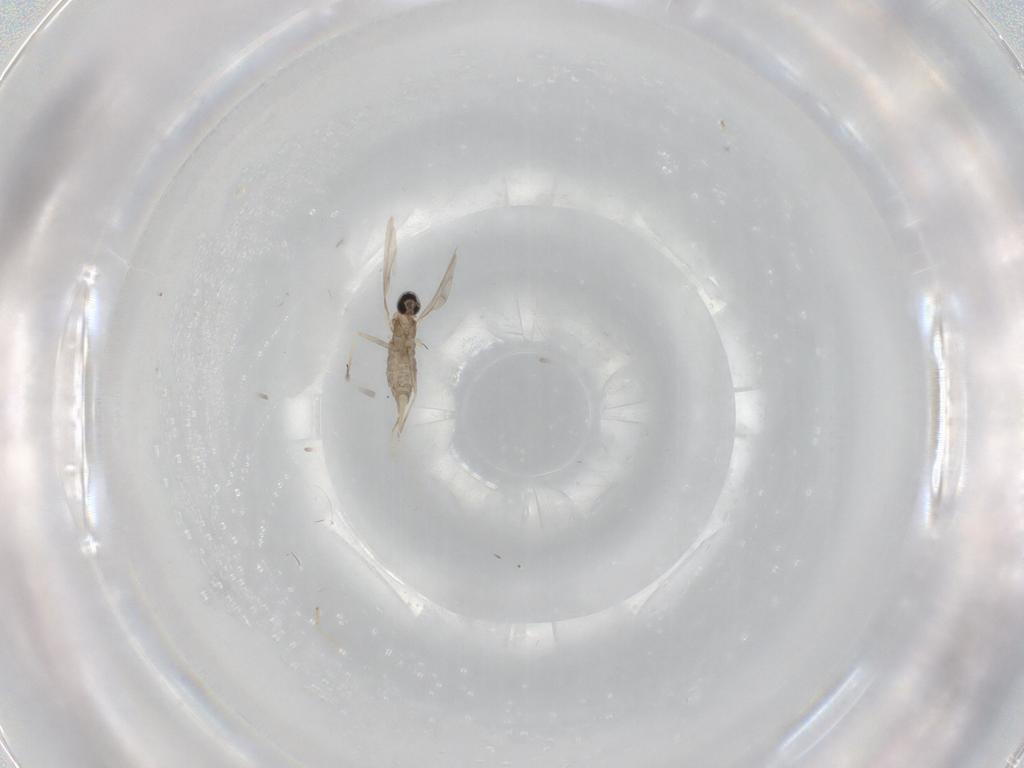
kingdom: Animalia
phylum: Arthropoda
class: Insecta
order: Diptera
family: Cecidomyiidae
